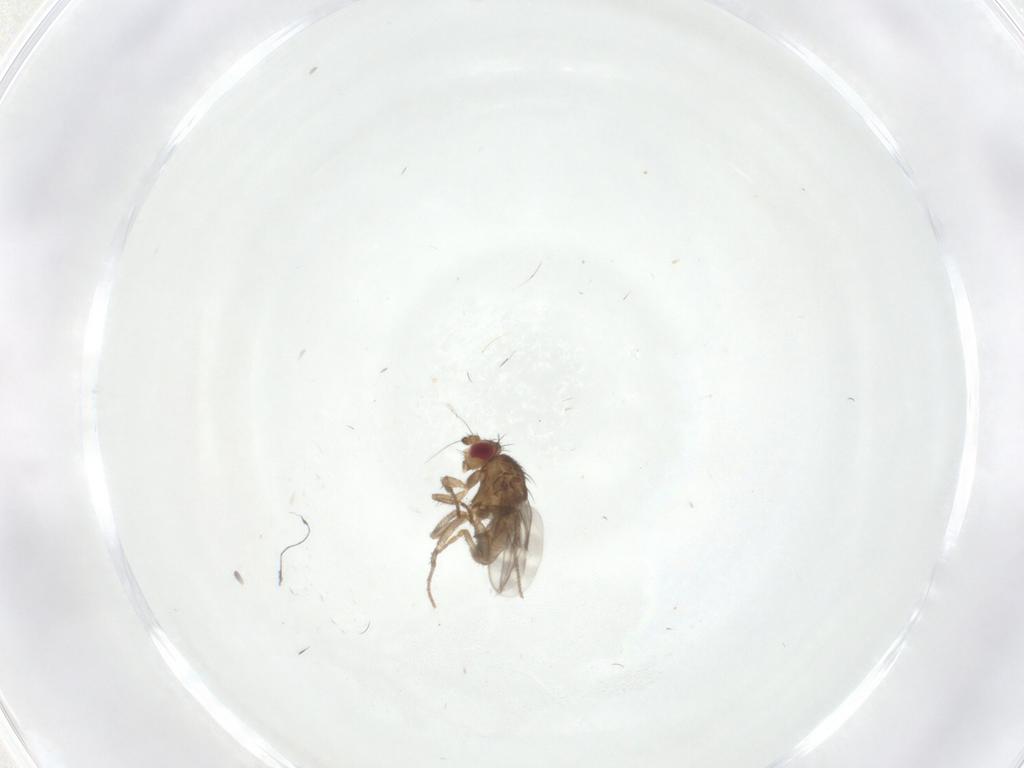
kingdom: Animalia
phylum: Arthropoda
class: Insecta
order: Diptera
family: Sphaeroceridae
